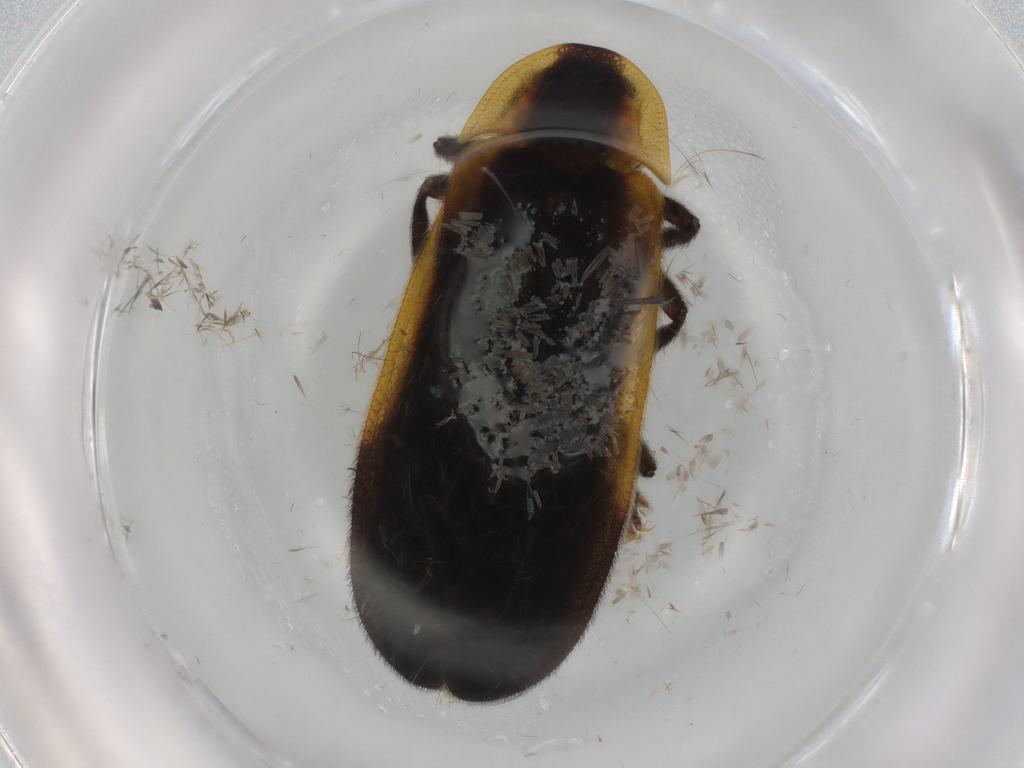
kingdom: Animalia
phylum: Arthropoda
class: Insecta
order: Coleoptera
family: Lampyridae
